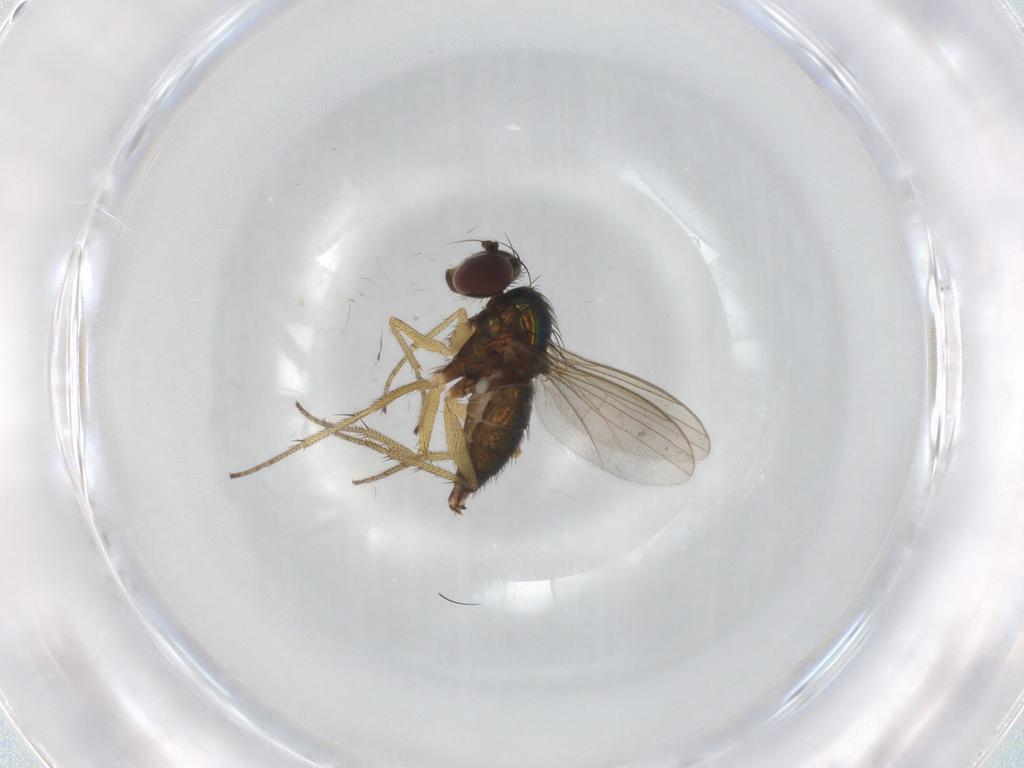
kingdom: Animalia
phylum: Arthropoda
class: Insecta
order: Diptera
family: Dolichopodidae
